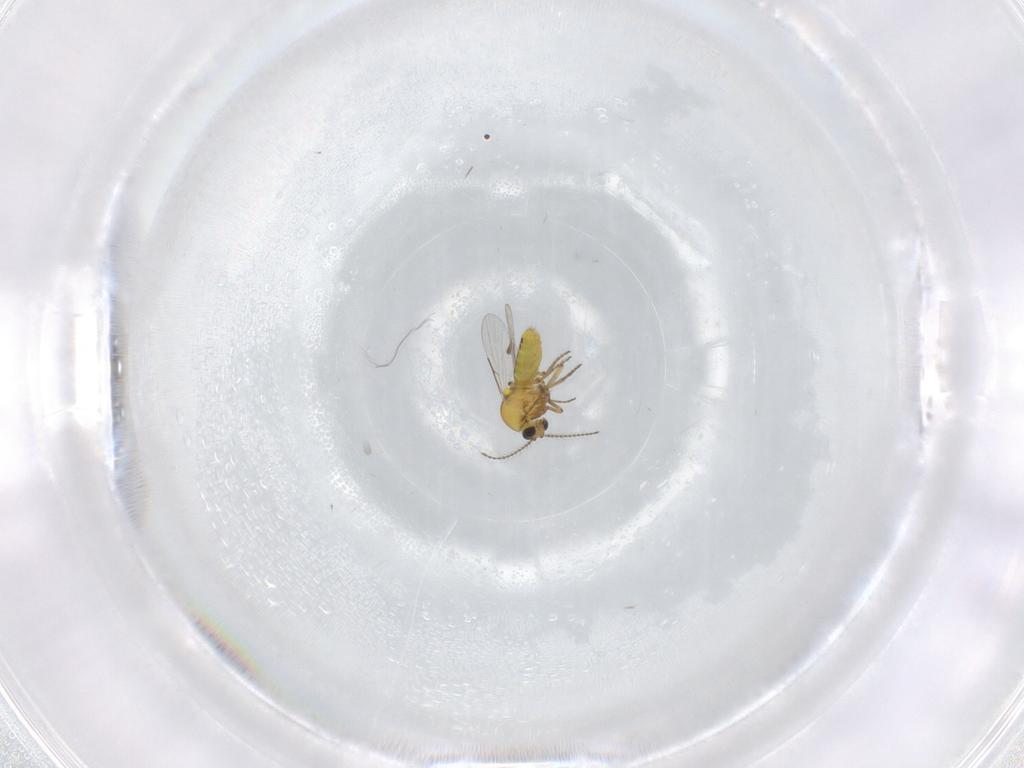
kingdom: Animalia
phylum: Arthropoda
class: Insecta
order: Diptera
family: Ceratopogonidae
